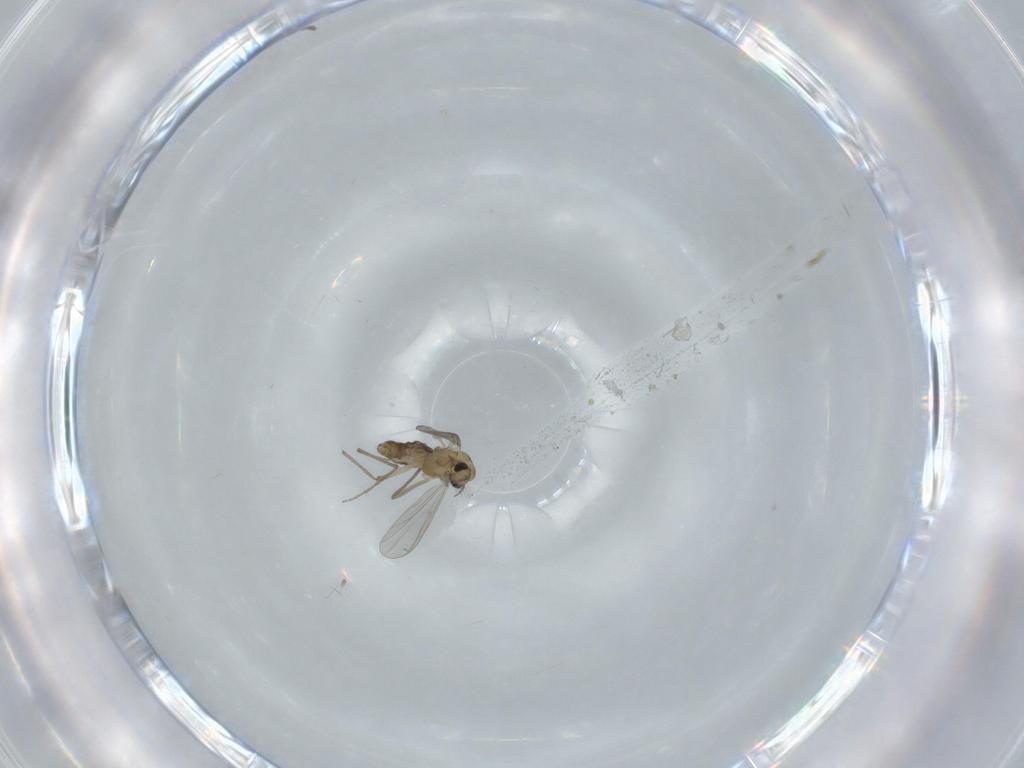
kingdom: Animalia
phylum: Arthropoda
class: Insecta
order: Diptera
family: Chironomidae
